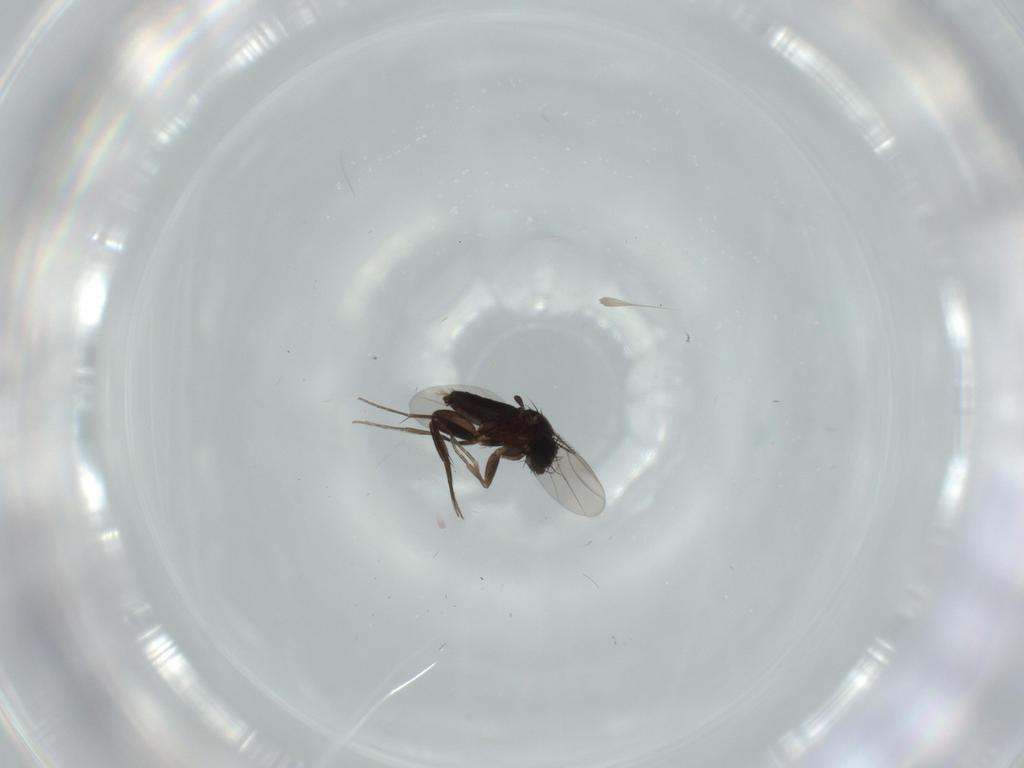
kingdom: Animalia
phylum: Arthropoda
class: Insecta
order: Diptera
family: Phoridae
